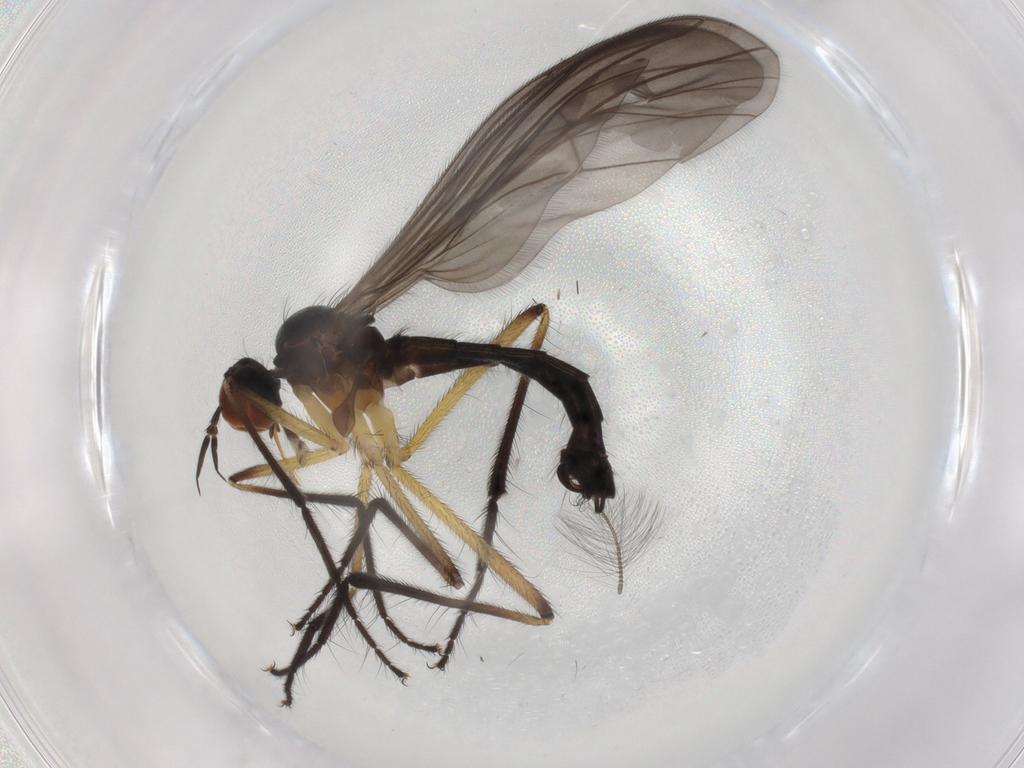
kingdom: Animalia
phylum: Arthropoda
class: Insecta
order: Diptera
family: Empididae
